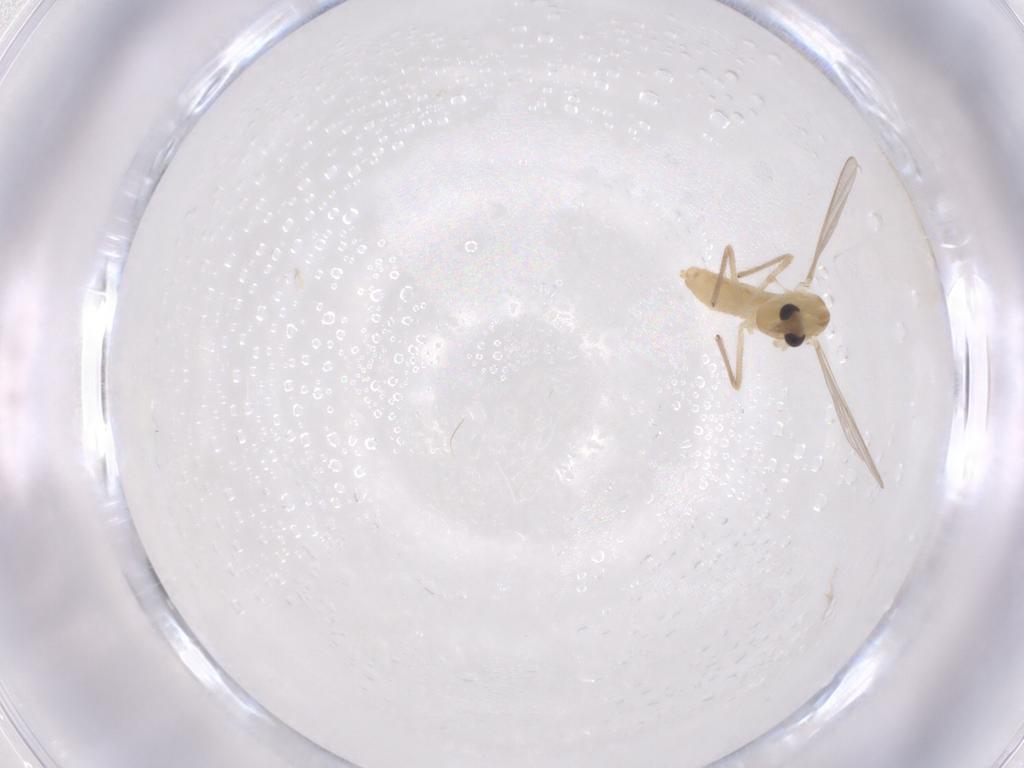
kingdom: Animalia
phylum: Arthropoda
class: Insecta
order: Diptera
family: Chironomidae
